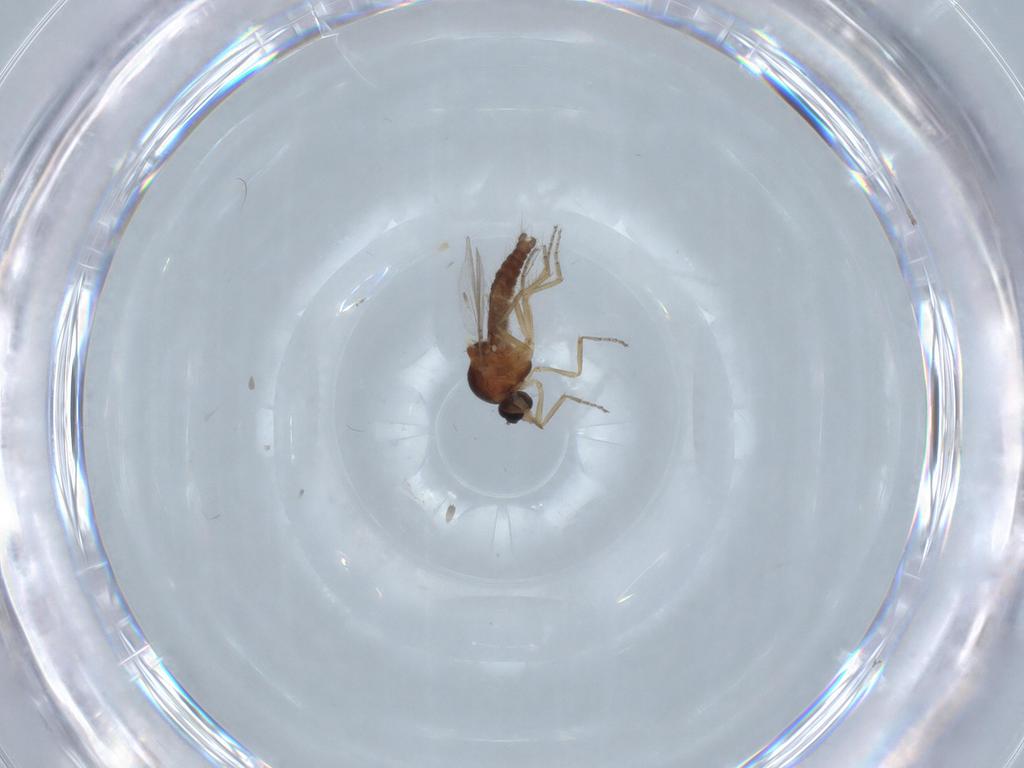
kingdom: Animalia
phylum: Arthropoda
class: Insecta
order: Diptera
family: Ceratopogonidae
